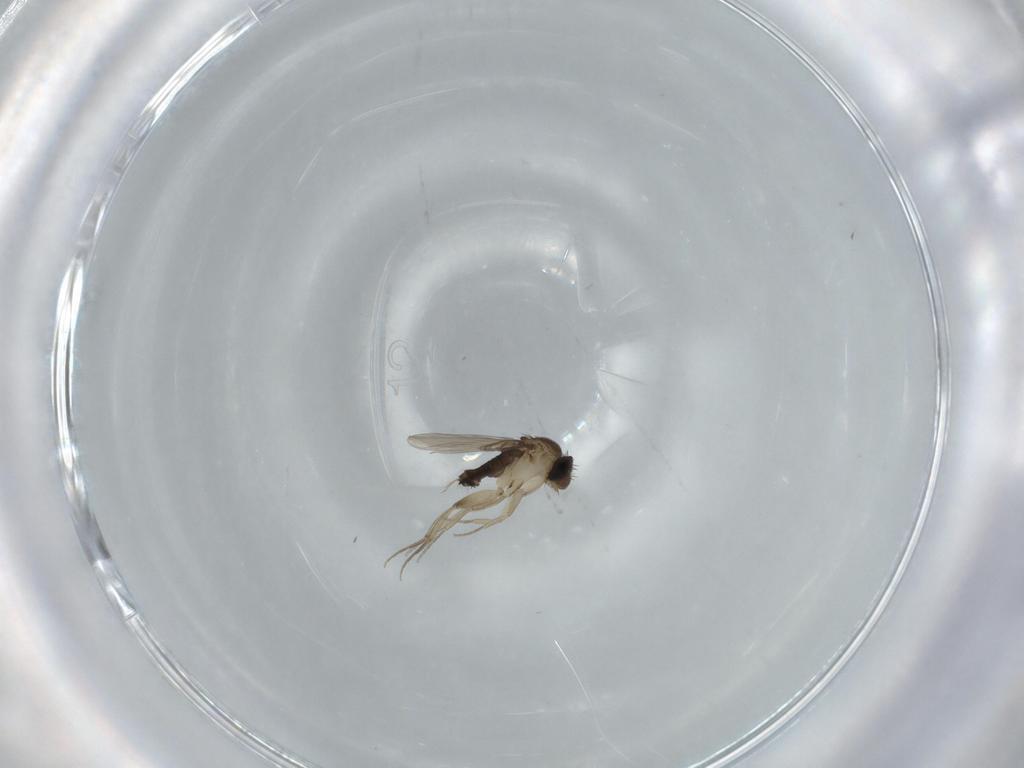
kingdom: Animalia
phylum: Arthropoda
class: Insecta
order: Diptera
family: Phoridae
